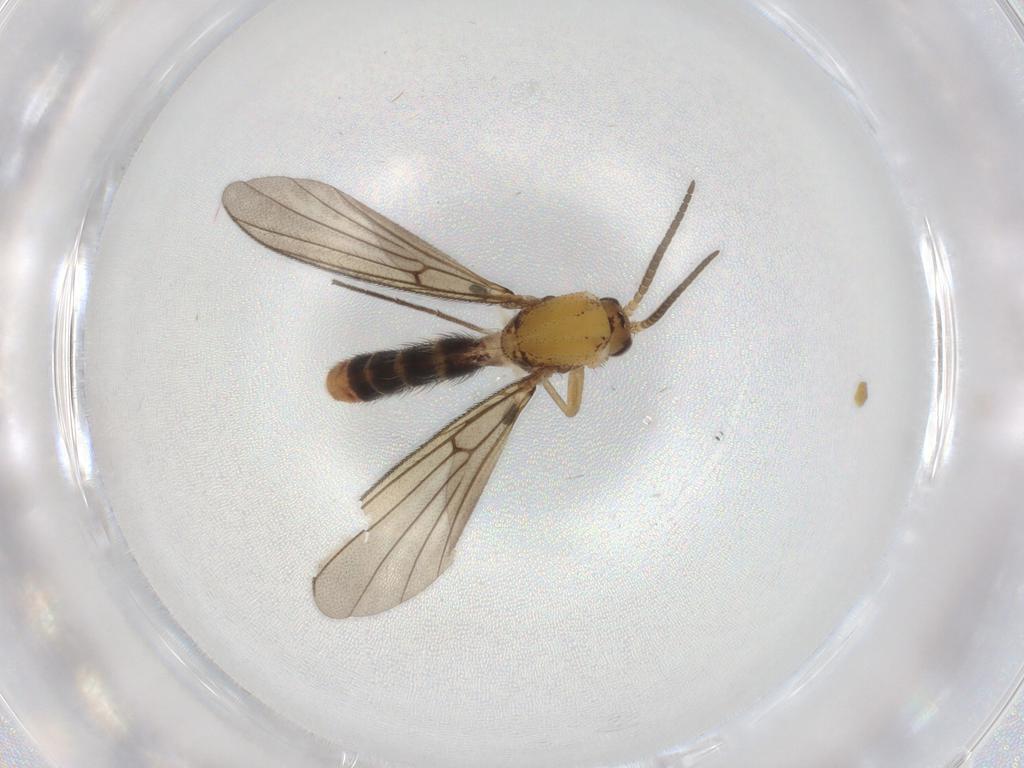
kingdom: Animalia
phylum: Arthropoda
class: Insecta
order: Diptera
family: Mycetophilidae
